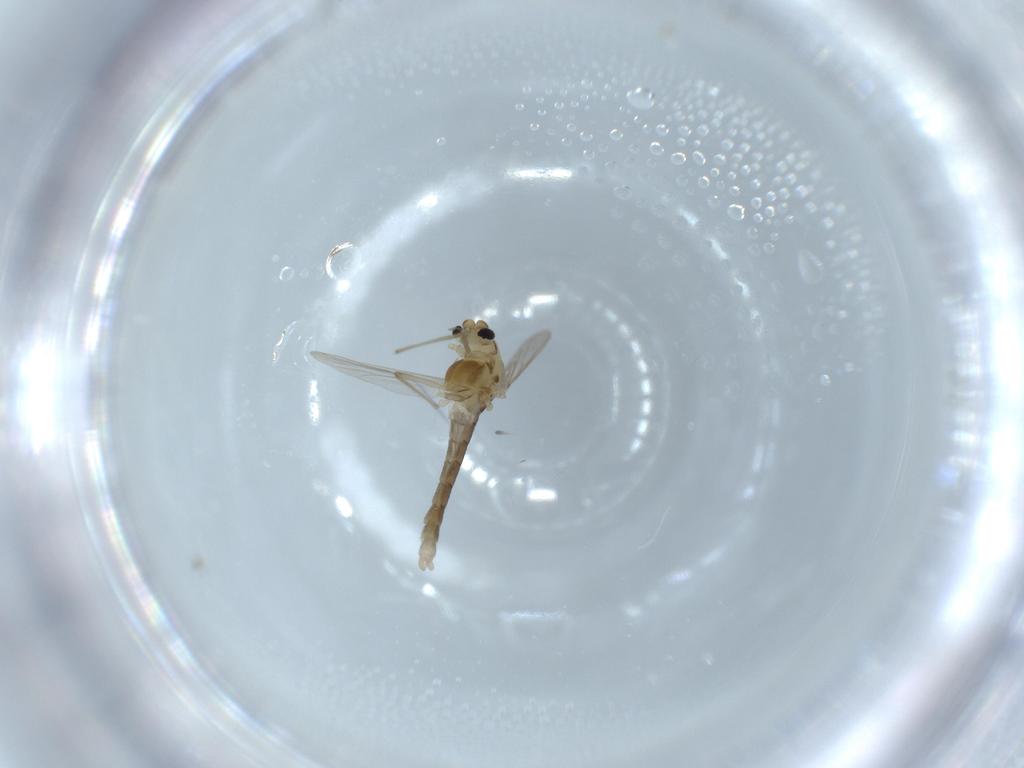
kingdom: Animalia
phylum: Arthropoda
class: Insecta
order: Diptera
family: Chironomidae
